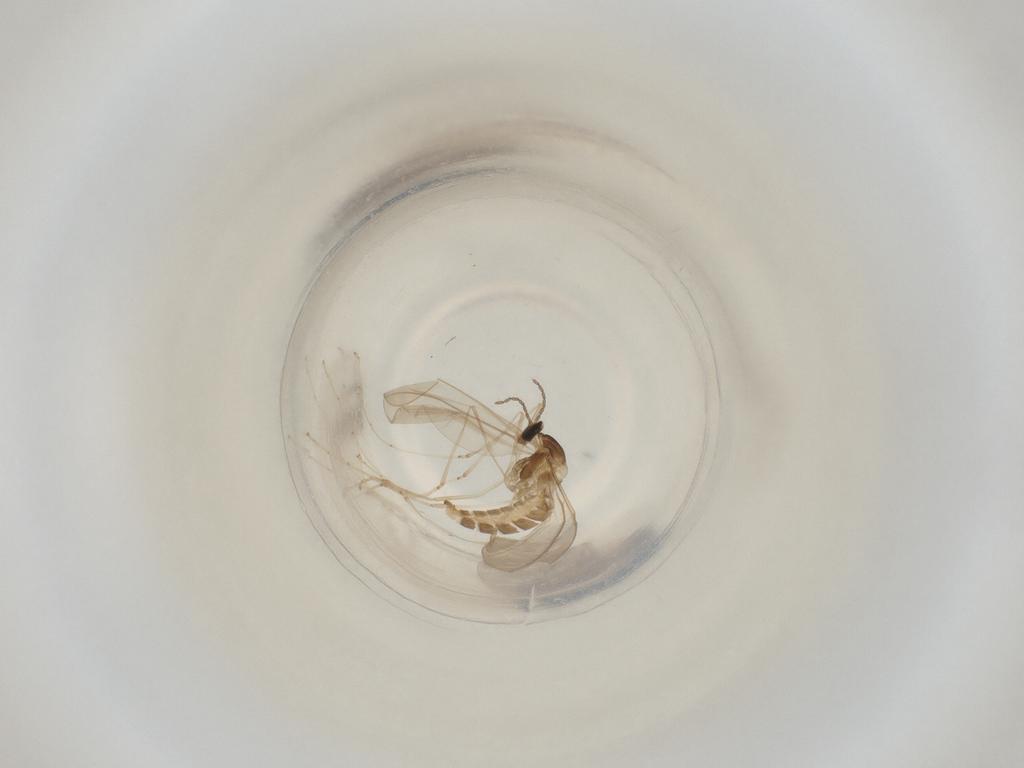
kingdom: Animalia
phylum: Arthropoda
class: Insecta
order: Diptera
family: Cecidomyiidae
